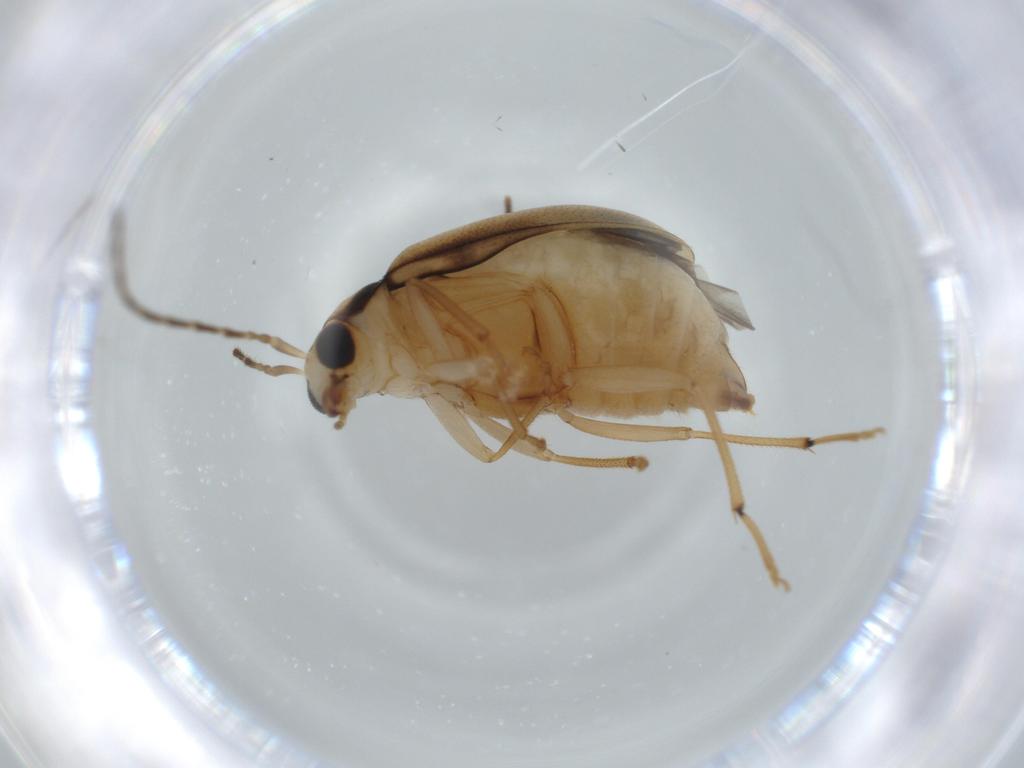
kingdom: Animalia
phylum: Arthropoda
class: Insecta
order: Coleoptera
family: Chrysomelidae
